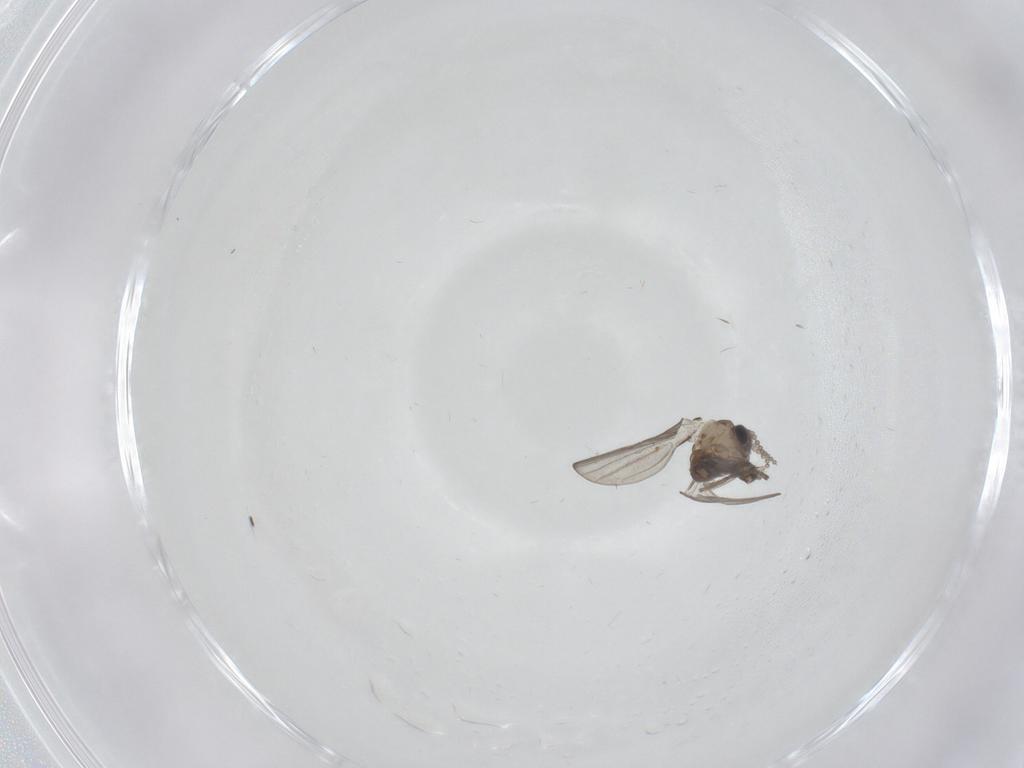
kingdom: Animalia
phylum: Arthropoda
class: Insecta
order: Diptera
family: Psychodidae
